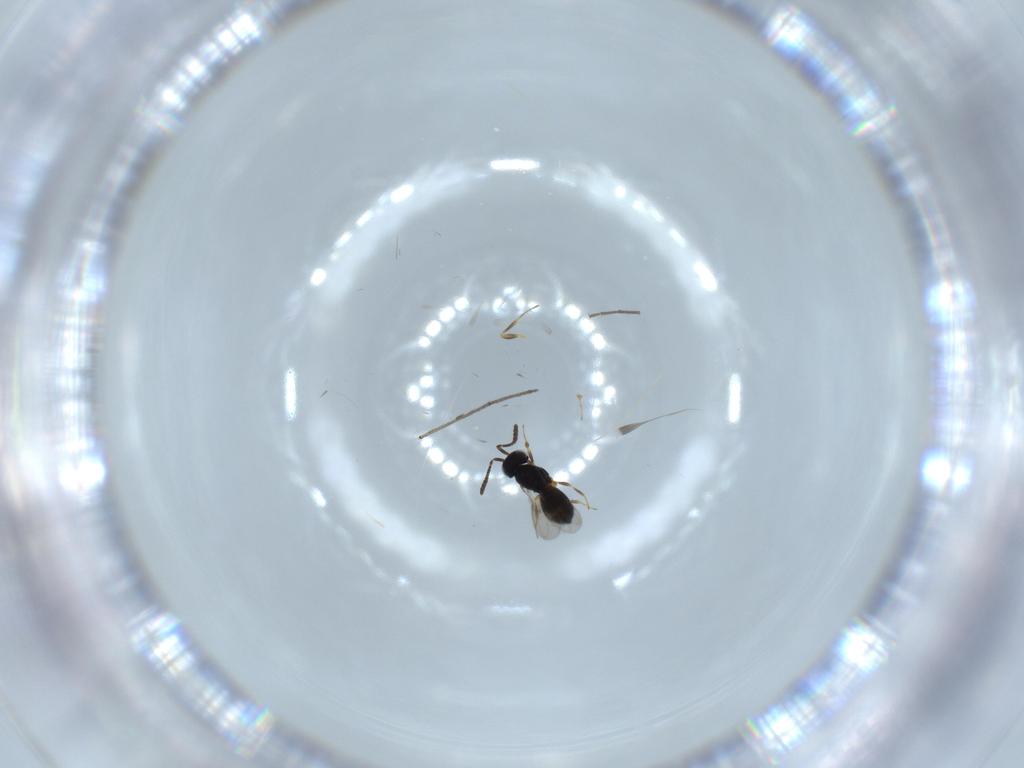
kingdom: Animalia
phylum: Arthropoda
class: Insecta
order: Hymenoptera
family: Scelionidae
